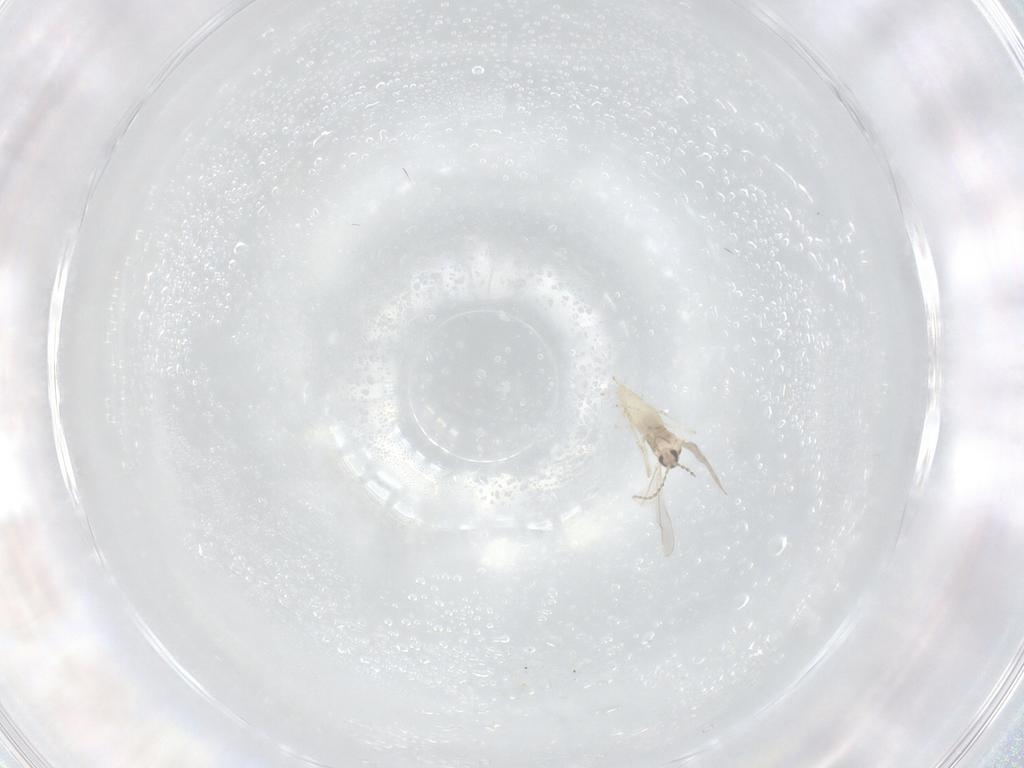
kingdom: Animalia
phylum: Arthropoda
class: Insecta
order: Diptera
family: Cecidomyiidae
